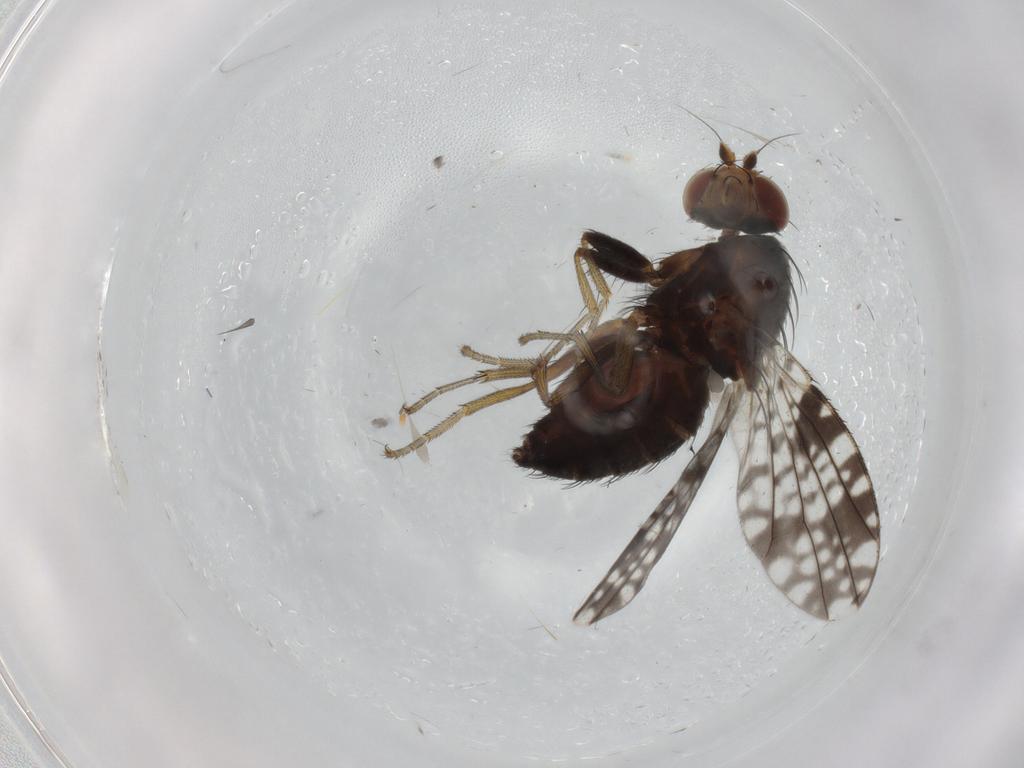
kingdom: Animalia
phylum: Arthropoda
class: Insecta
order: Diptera
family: Tephritidae
